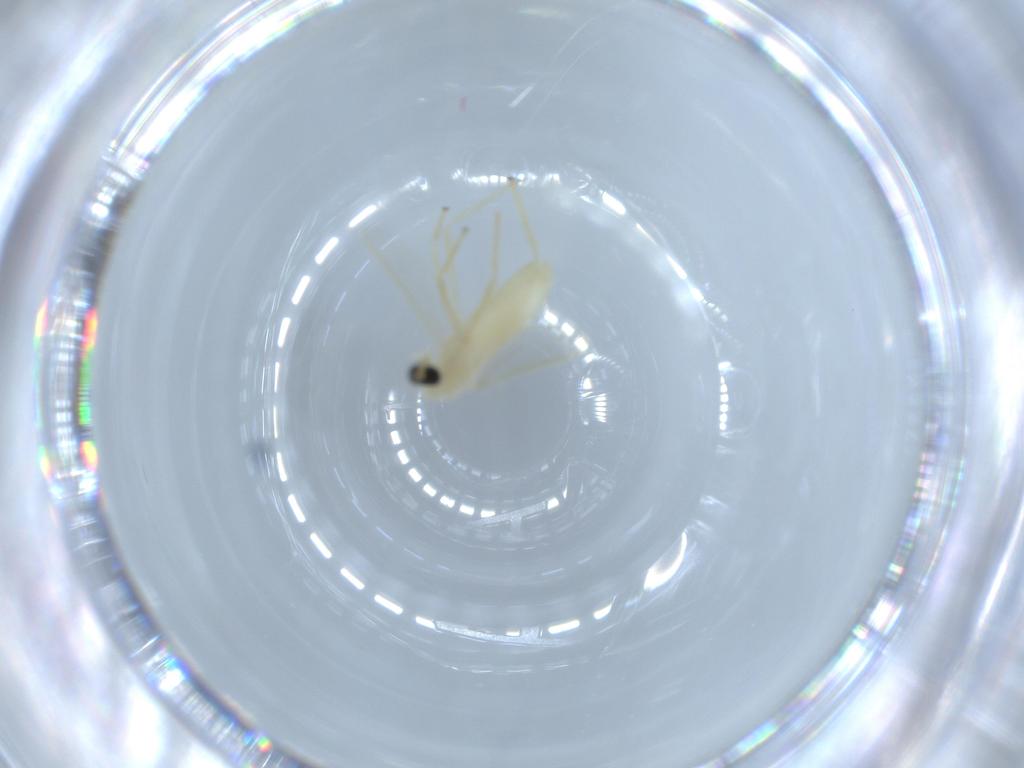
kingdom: Animalia
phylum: Arthropoda
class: Insecta
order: Diptera
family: Chironomidae
